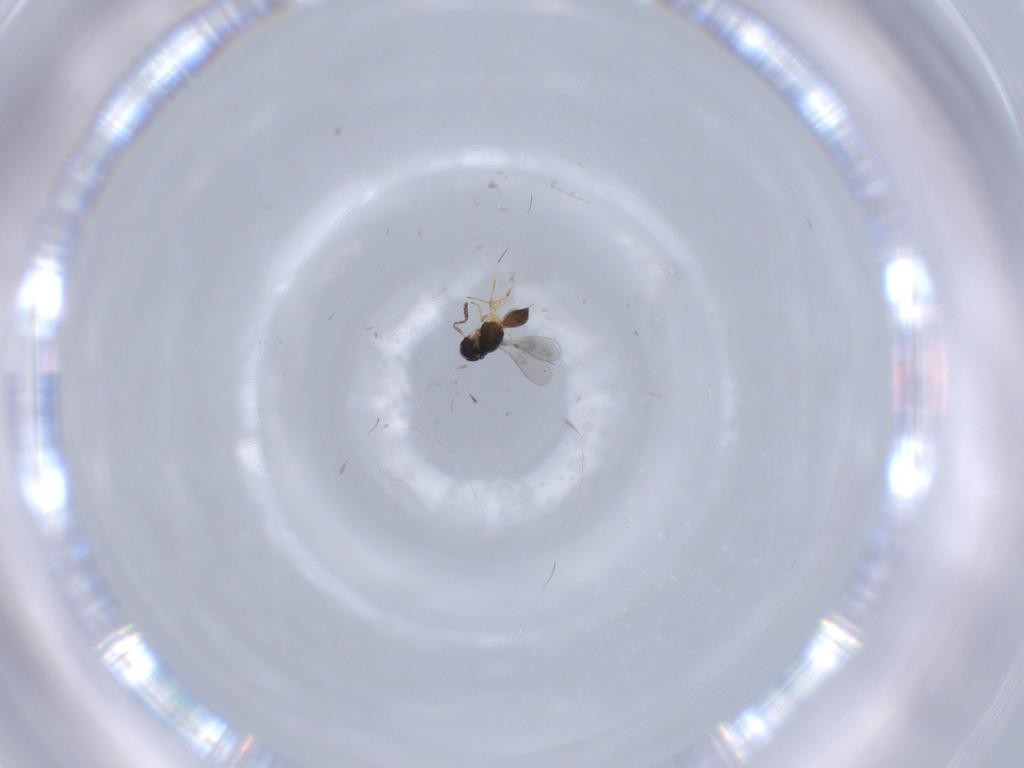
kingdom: Animalia
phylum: Arthropoda
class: Insecta
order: Hymenoptera
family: Scelionidae
